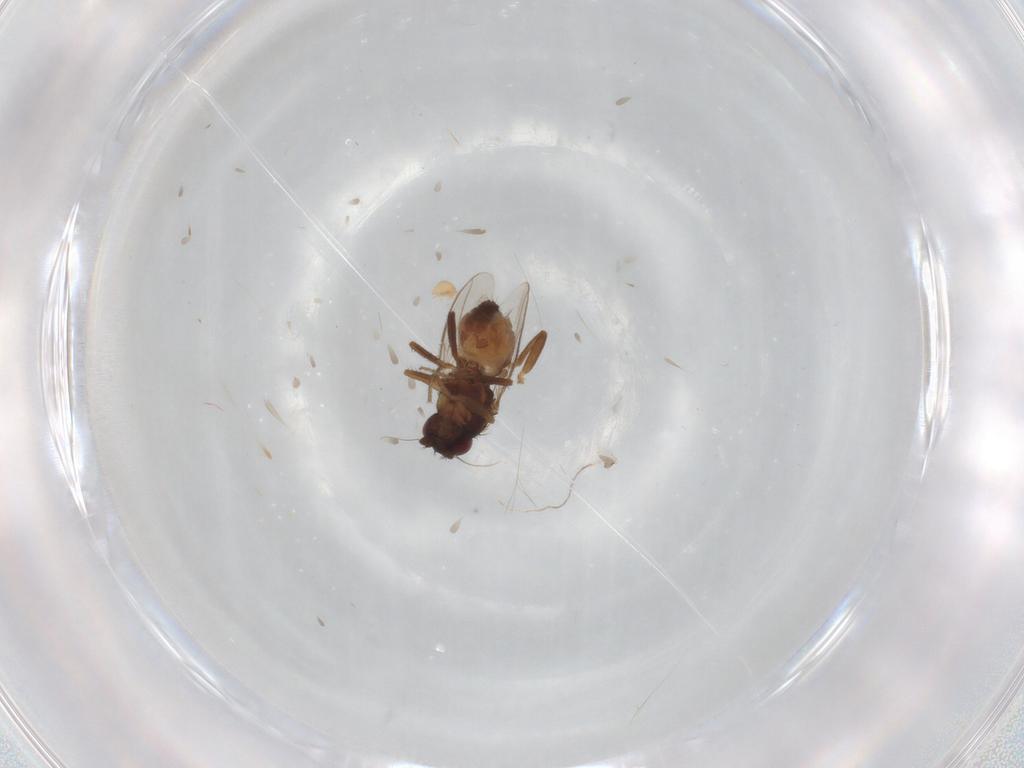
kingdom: Animalia
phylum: Arthropoda
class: Insecta
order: Diptera
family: Sphaeroceridae
